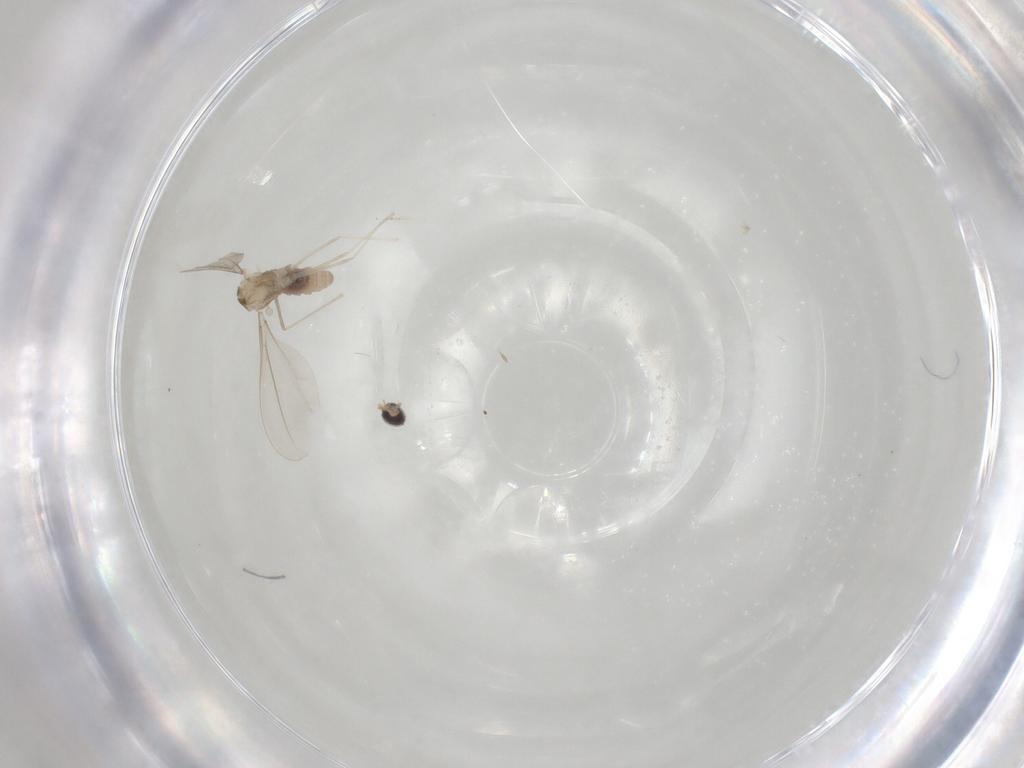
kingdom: Animalia
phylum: Arthropoda
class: Insecta
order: Diptera
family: Cecidomyiidae
